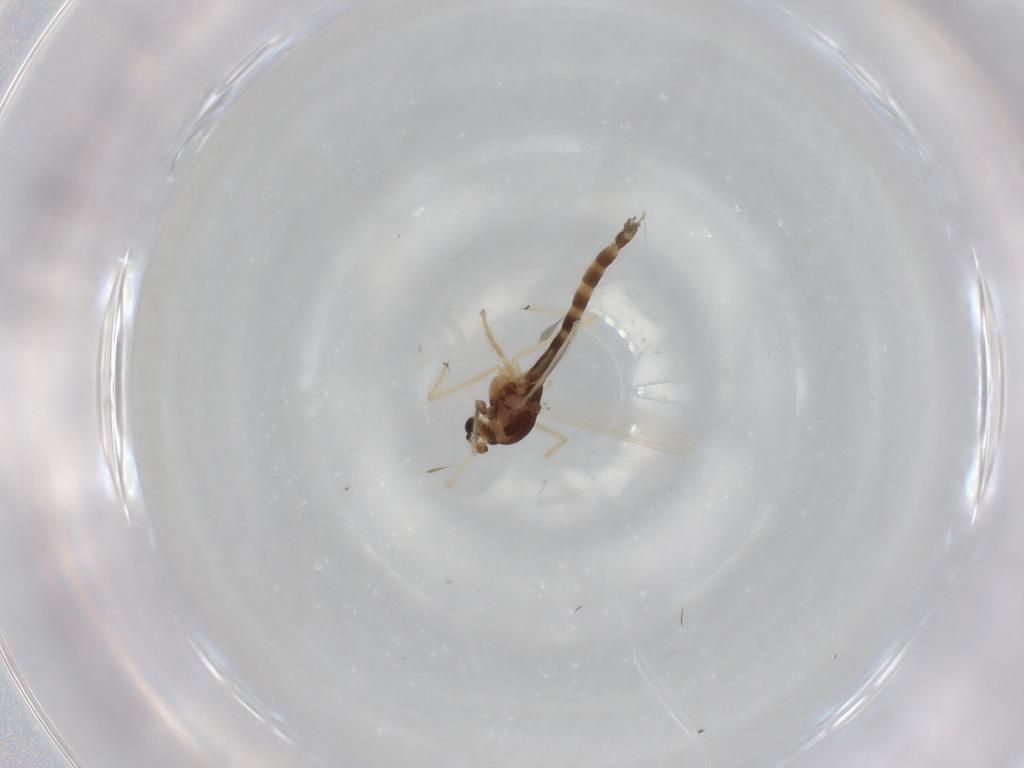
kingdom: Animalia
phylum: Arthropoda
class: Insecta
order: Diptera
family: Chironomidae
